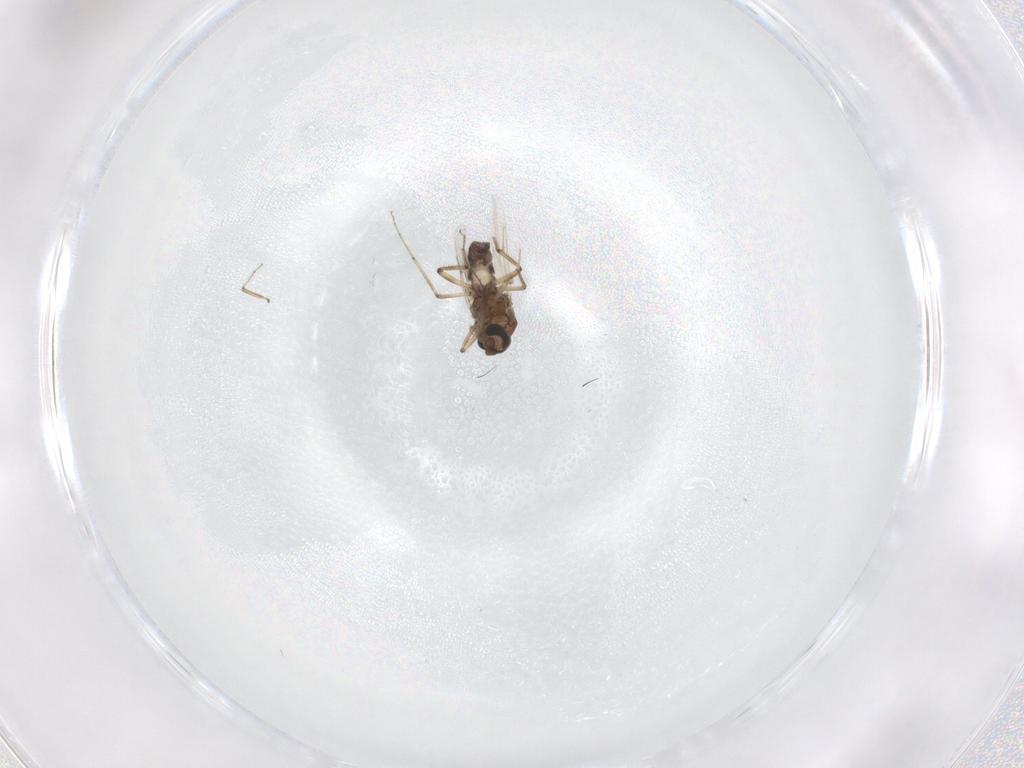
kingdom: Animalia
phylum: Arthropoda
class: Insecta
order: Diptera
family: Ceratopogonidae
